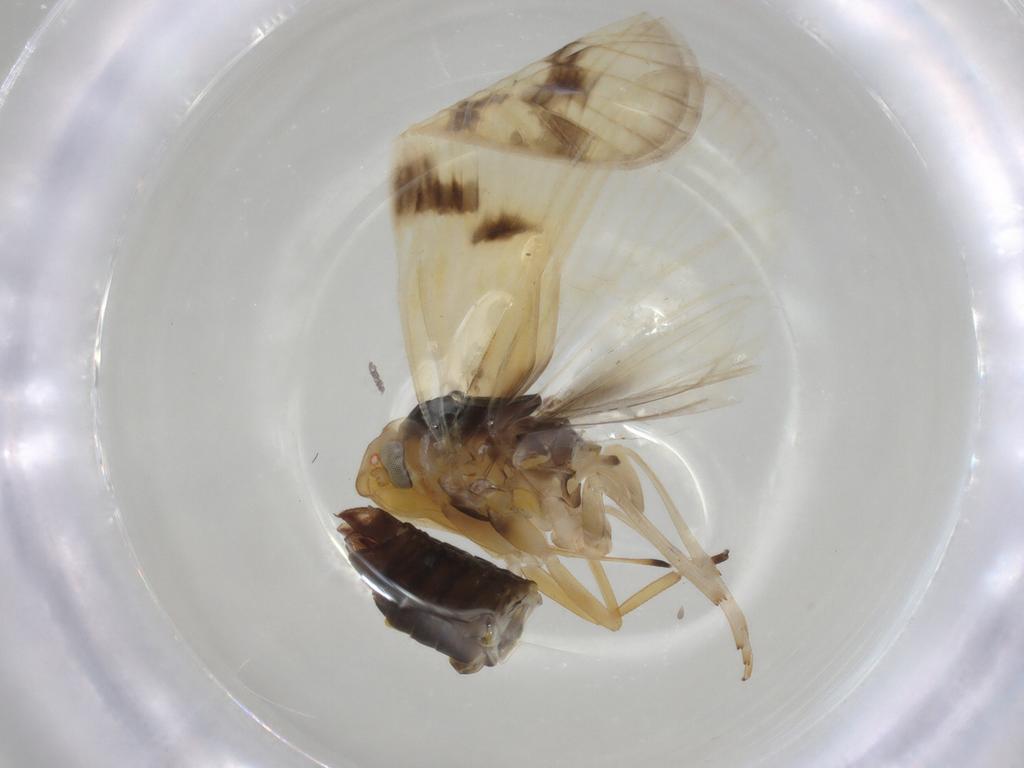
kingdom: Animalia
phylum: Arthropoda
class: Insecta
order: Hemiptera
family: Cixiidae
